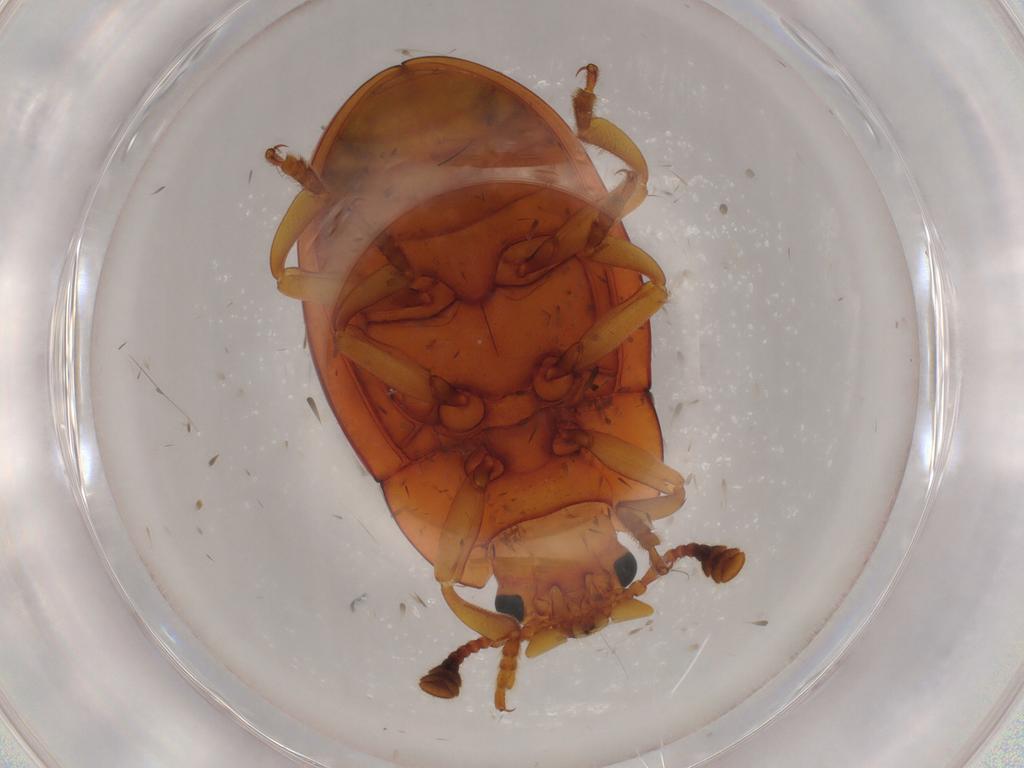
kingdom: Animalia
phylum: Arthropoda
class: Insecta
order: Coleoptera
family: Erotylidae
